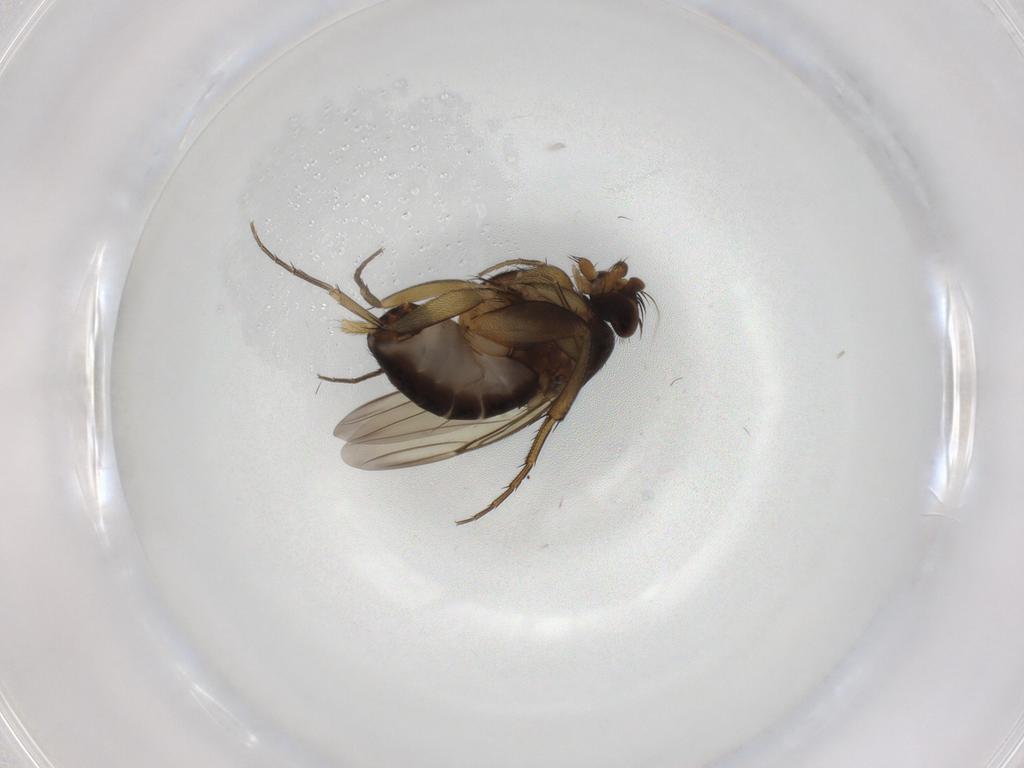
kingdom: Animalia
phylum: Arthropoda
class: Insecta
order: Diptera
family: Phoridae
